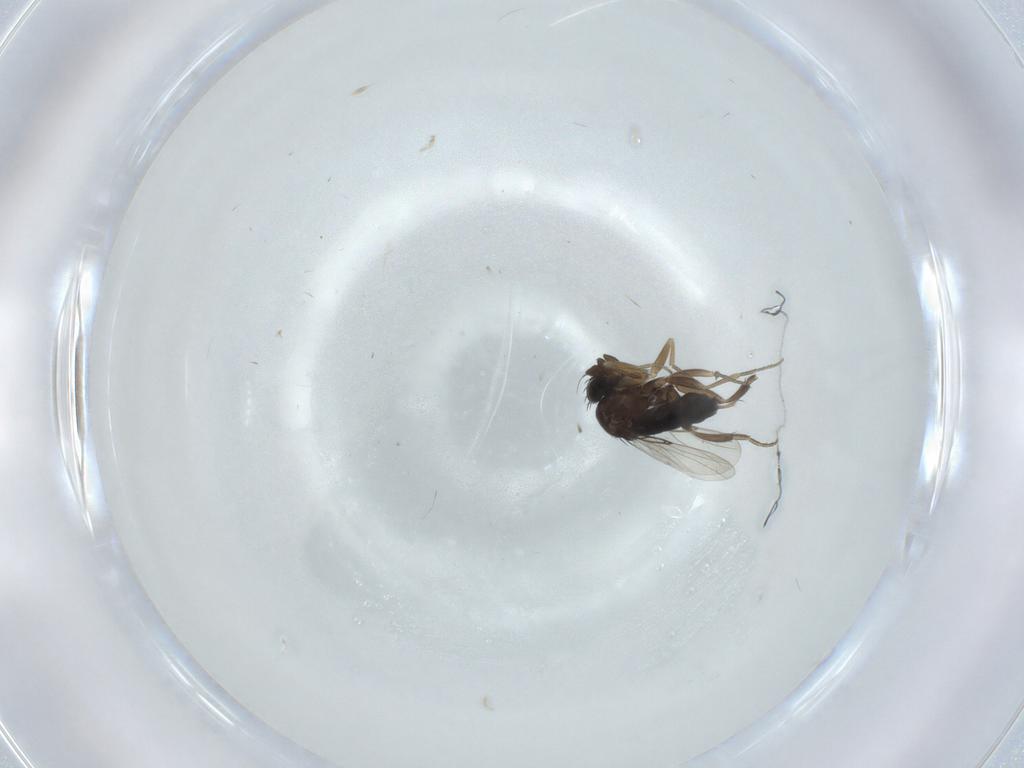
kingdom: Animalia
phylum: Arthropoda
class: Insecta
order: Diptera
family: Phoridae
